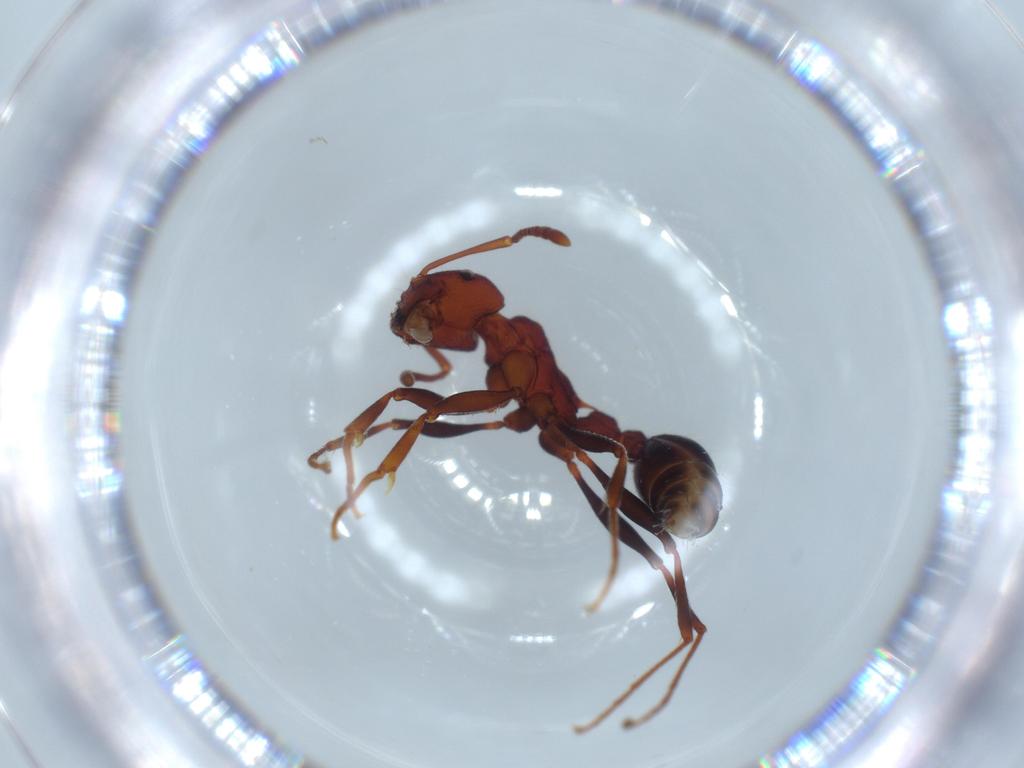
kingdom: Animalia
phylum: Arthropoda
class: Insecta
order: Hymenoptera
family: Formicidae
